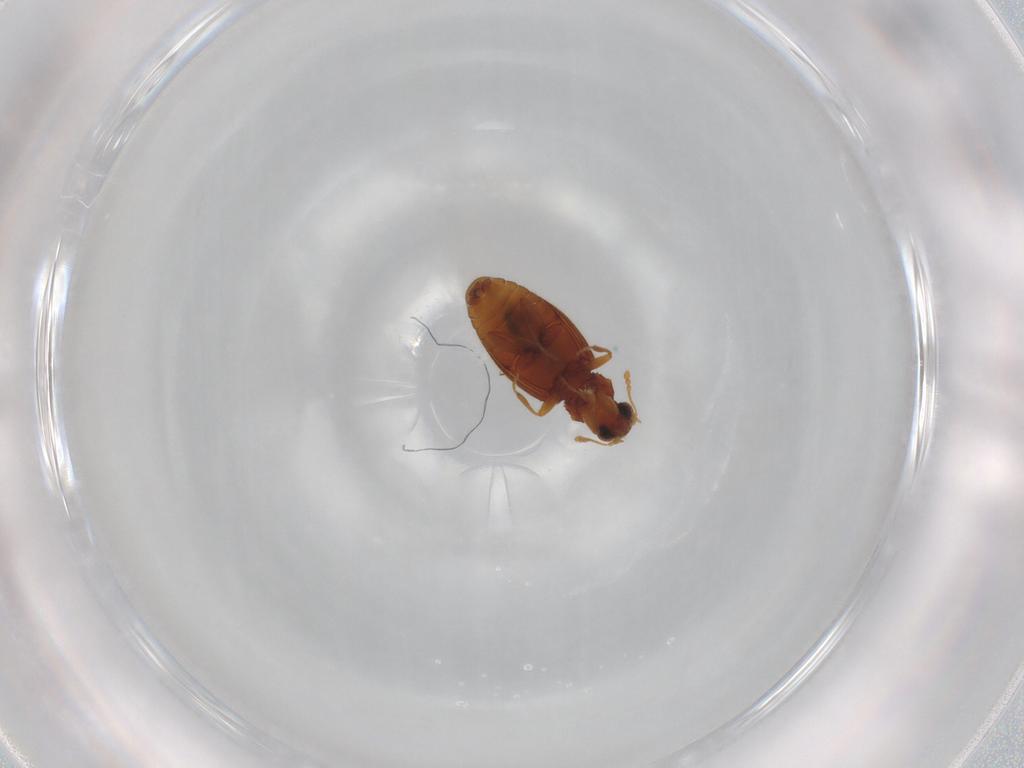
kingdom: Animalia
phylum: Arthropoda
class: Insecta
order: Coleoptera
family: Latridiidae
